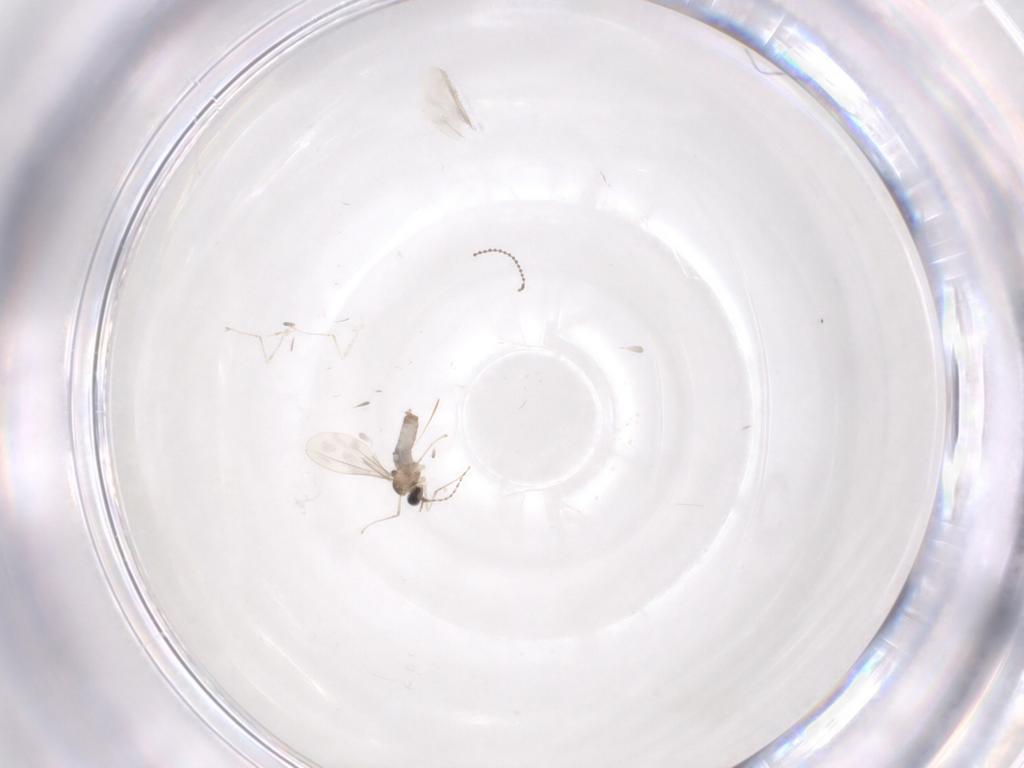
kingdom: Animalia
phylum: Arthropoda
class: Insecta
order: Diptera
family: Cecidomyiidae
